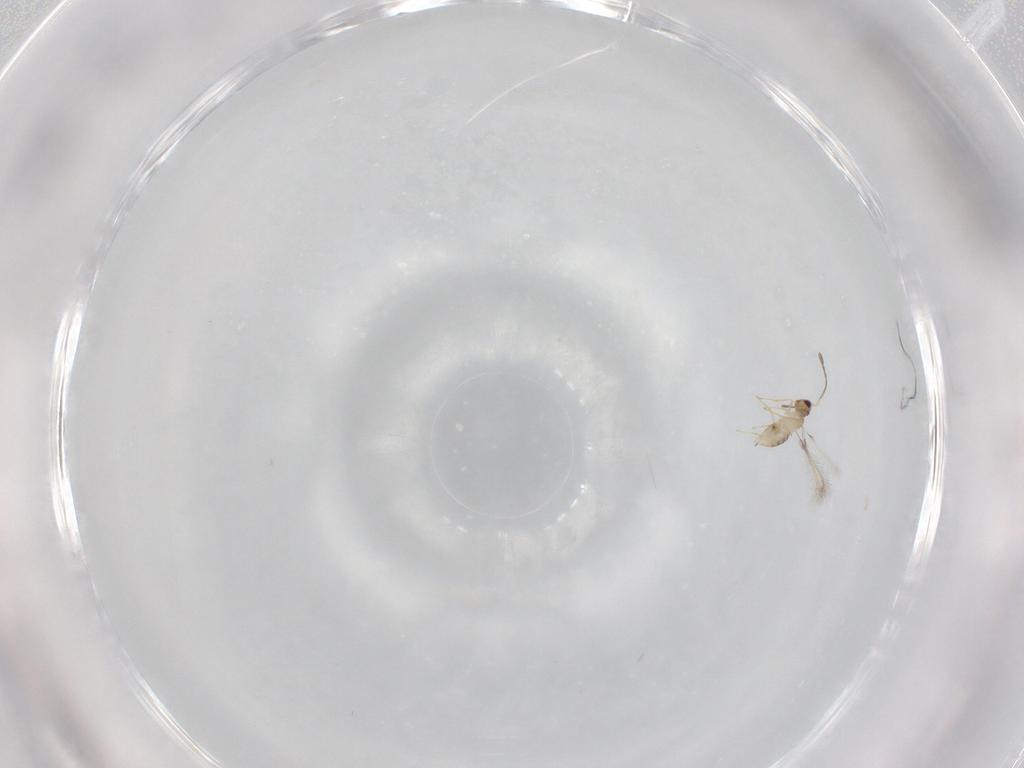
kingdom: Animalia
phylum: Arthropoda
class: Insecta
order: Hymenoptera
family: Mymaridae
